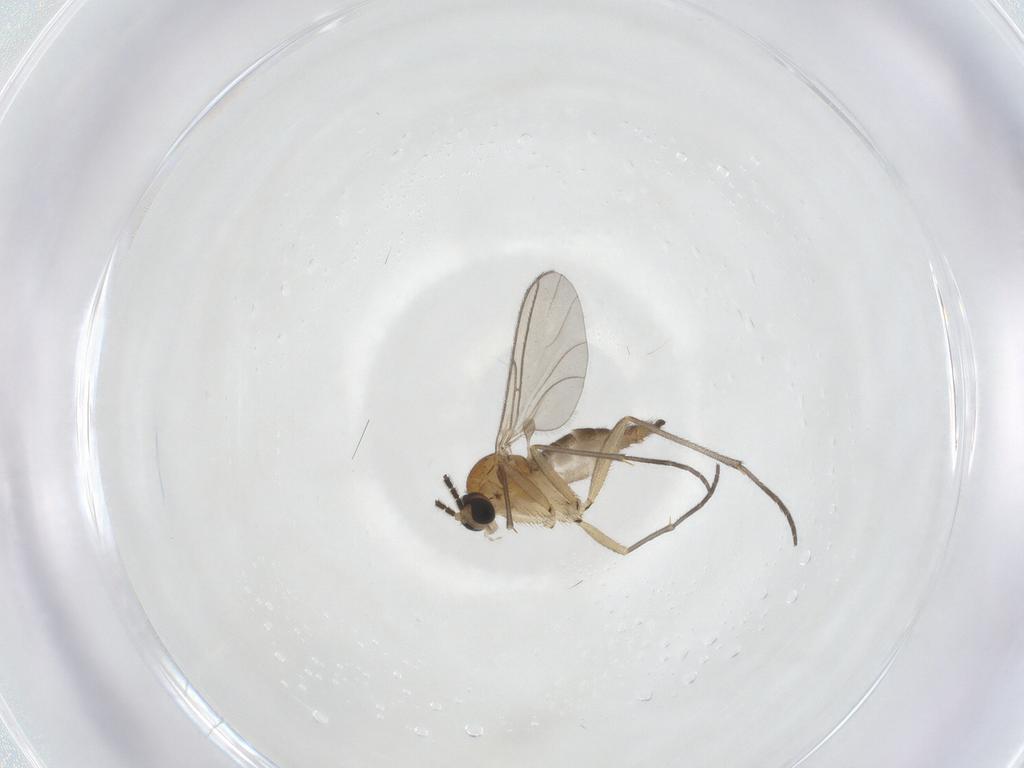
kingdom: Animalia
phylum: Arthropoda
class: Insecta
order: Diptera
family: Sciaridae
